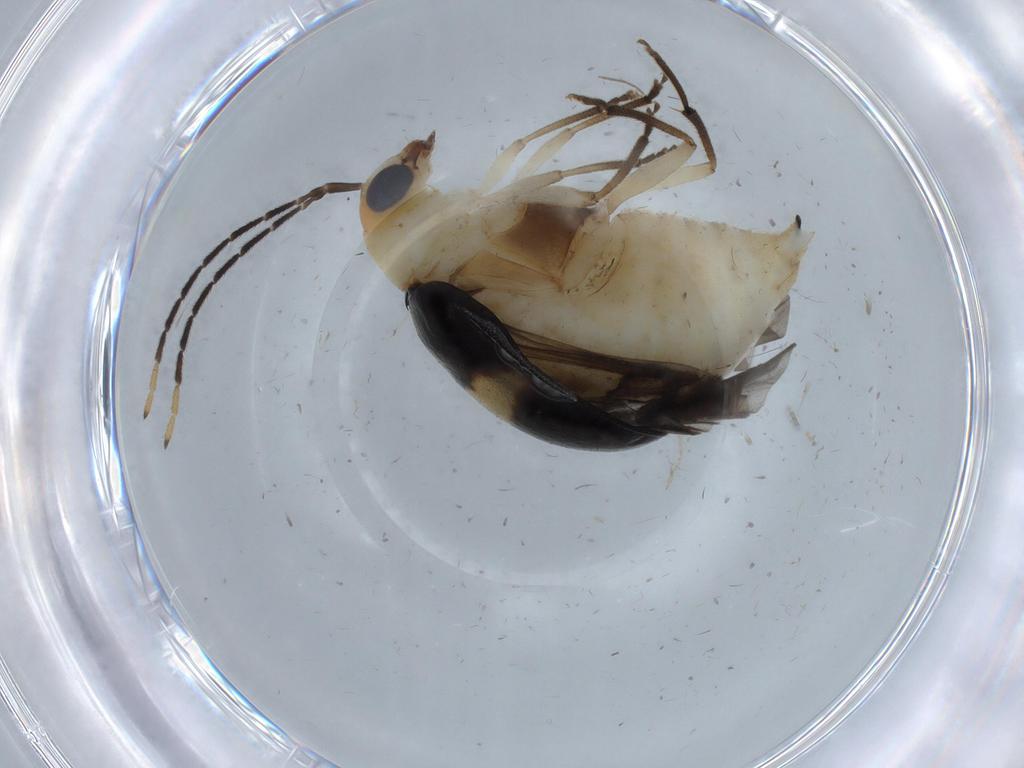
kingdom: Animalia
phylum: Arthropoda
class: Insecta
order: Coleoptera
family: Chrysomelidae
